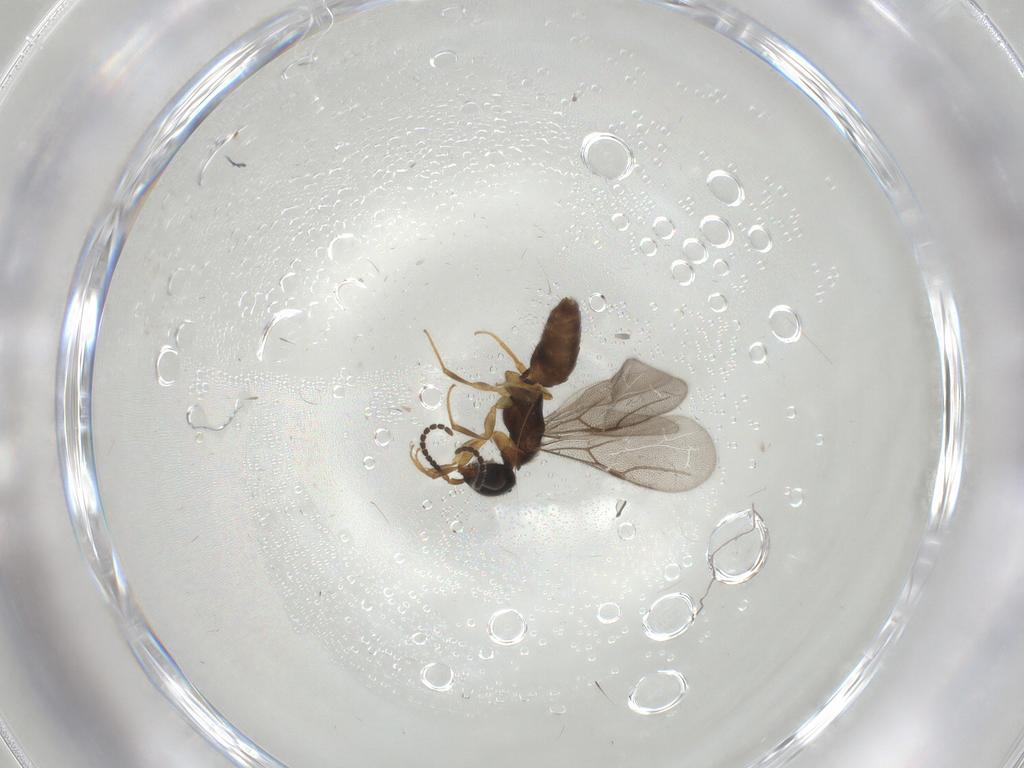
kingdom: Animalia
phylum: Arthropoda
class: Insecta
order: Hymenoptera
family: Bethylidae
